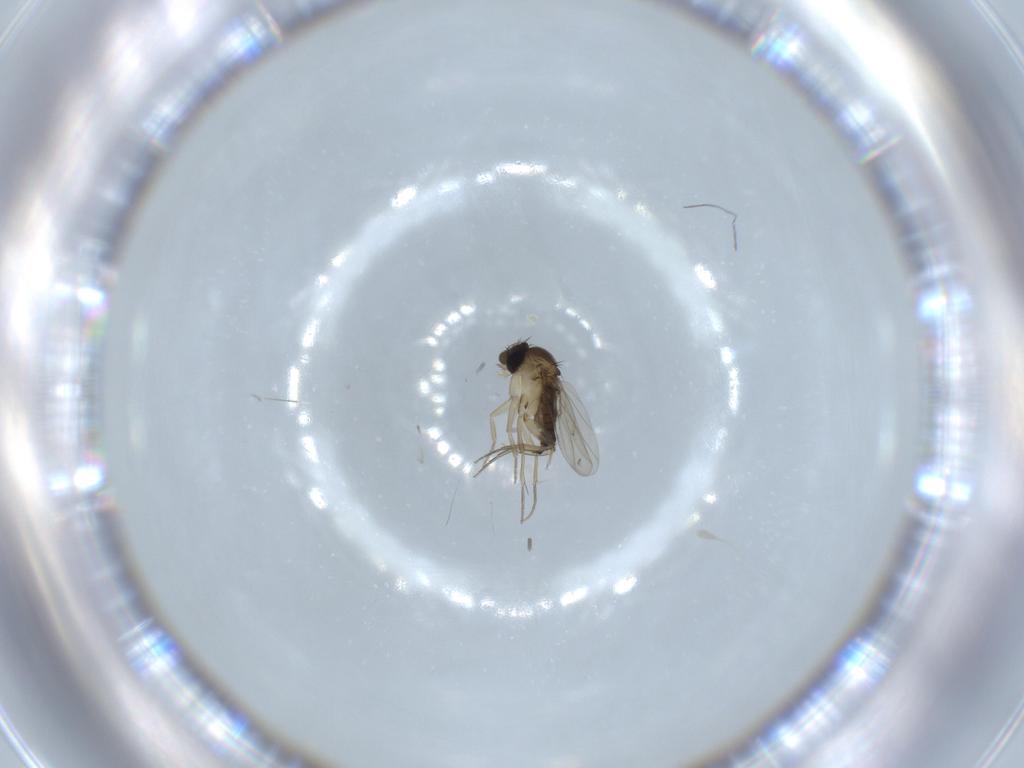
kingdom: Animalia
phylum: Arthropoda
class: Insecta
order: Diptera
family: Phoridae
